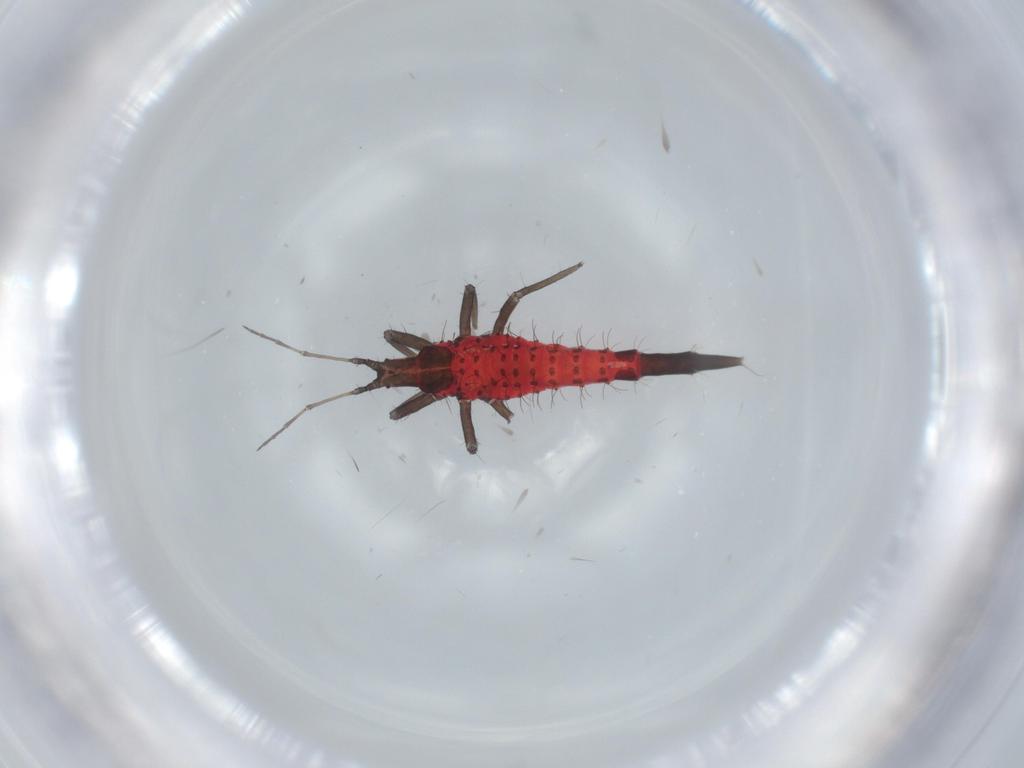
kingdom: Animalia
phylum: Arthropoda
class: Insecta
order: Thysanoptera
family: Phlaeothripidae
